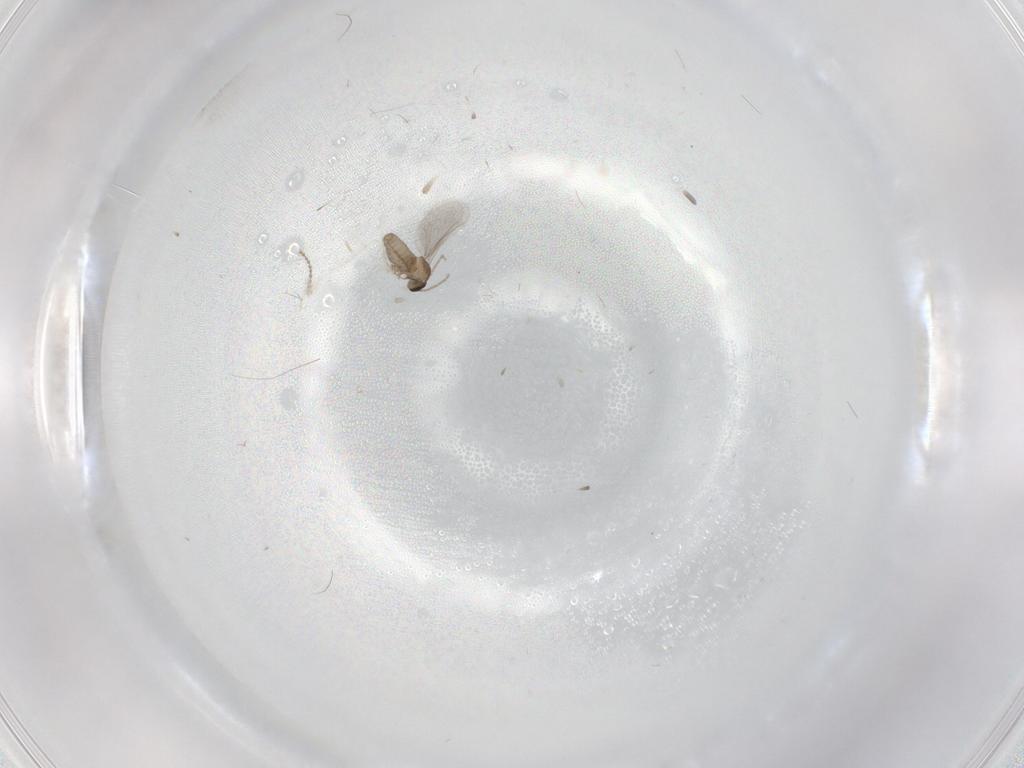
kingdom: Animalia
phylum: Arthropoda
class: Insecta
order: Diptera
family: Cecidomyiidae
